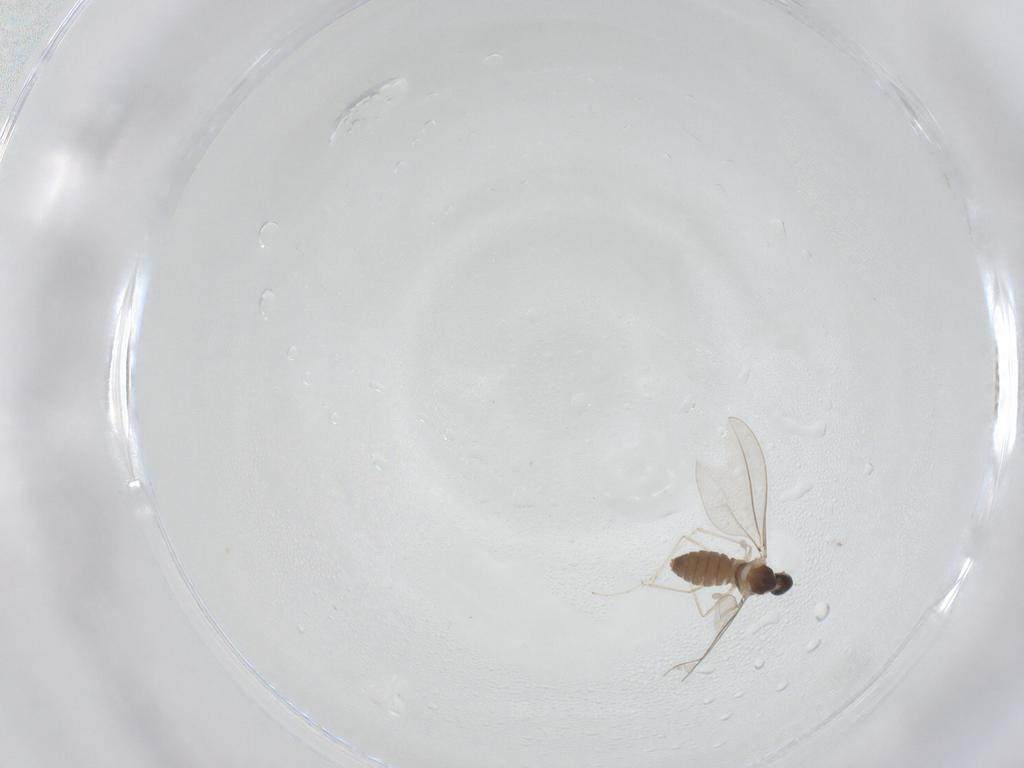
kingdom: Animalia
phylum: Arthropoda
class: Insecta
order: Diptera
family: Cecidomyiidae
